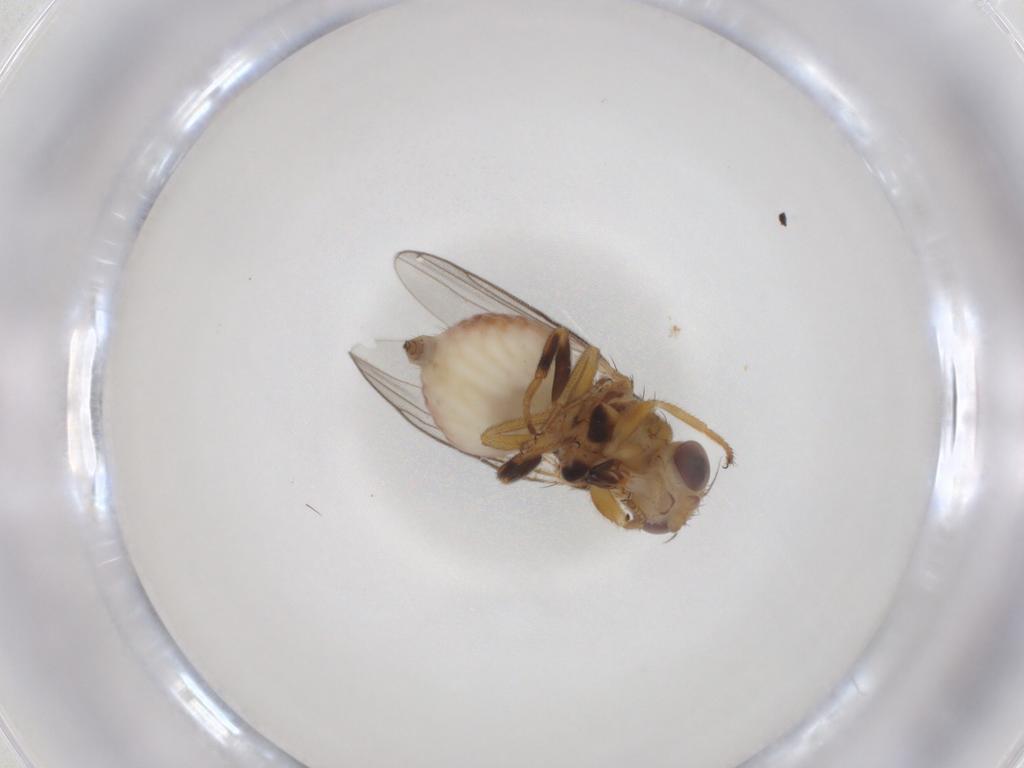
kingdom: Animalia
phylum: Arthropoda
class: Insecta
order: Diptera
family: Chloropidae
